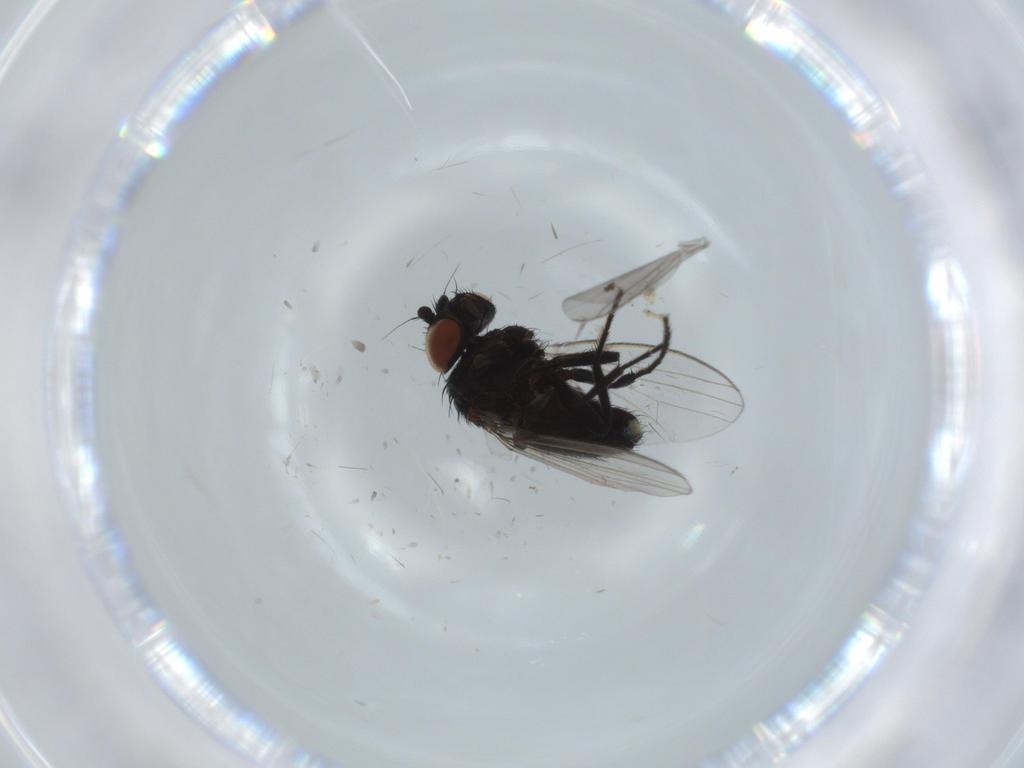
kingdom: Animalia
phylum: Arthropoda
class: Insecta
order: Diptera
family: Milichiidae
